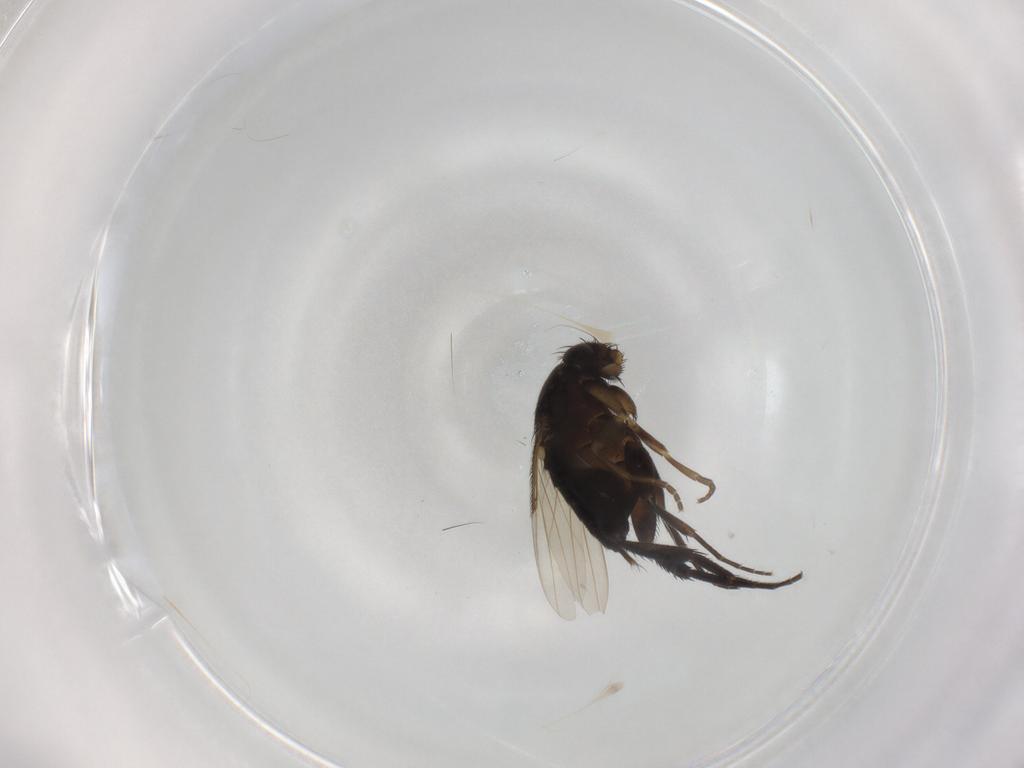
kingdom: Animalia
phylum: Arthropoda
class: Insecta
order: Diptera
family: Phoridae
